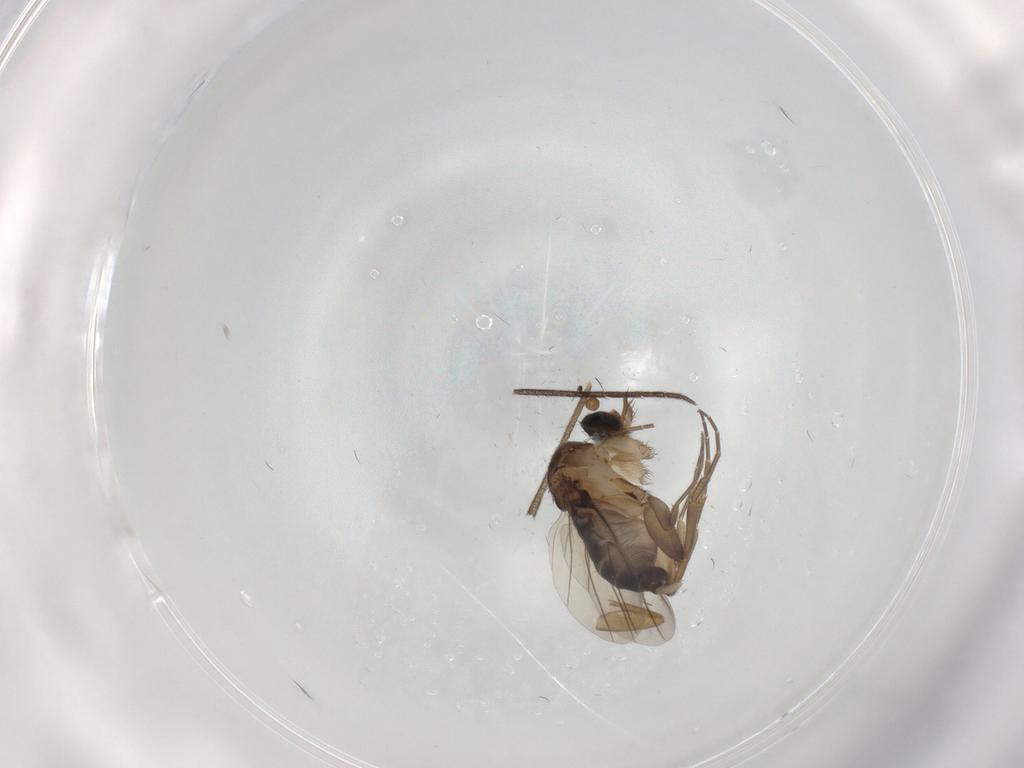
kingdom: Animalia
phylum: Arthropoda
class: Insecta
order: Diptera
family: Phoridae
